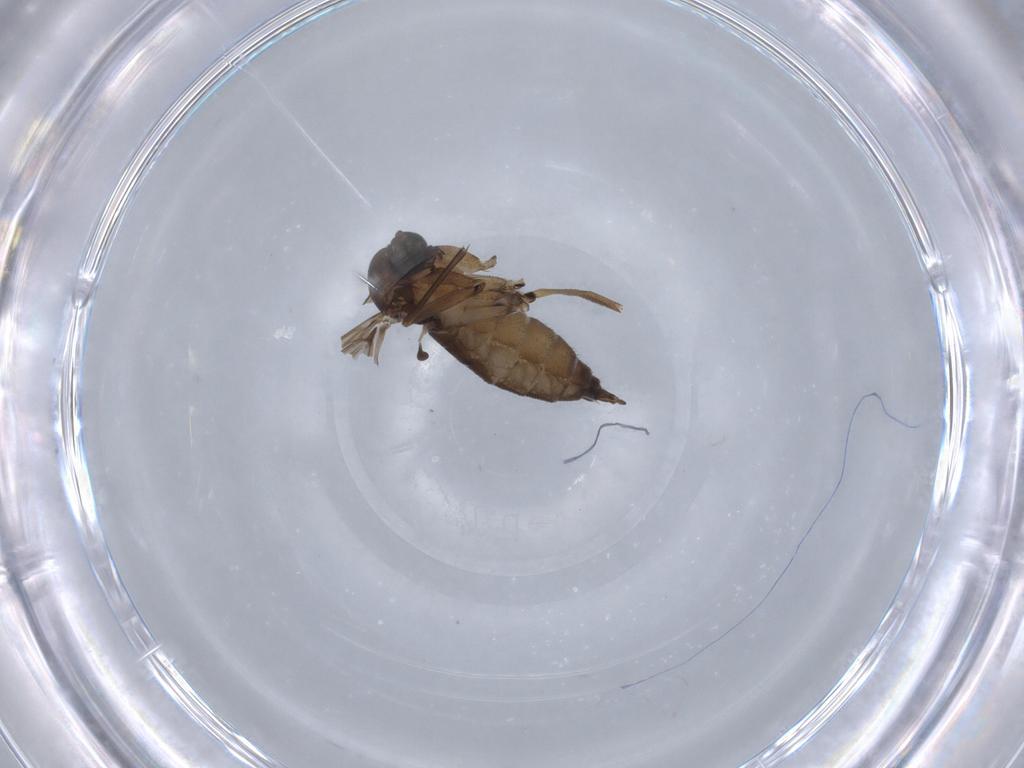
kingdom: Animalia
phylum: Arthropoda
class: Insecta
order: Diptera
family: Sciaridae
